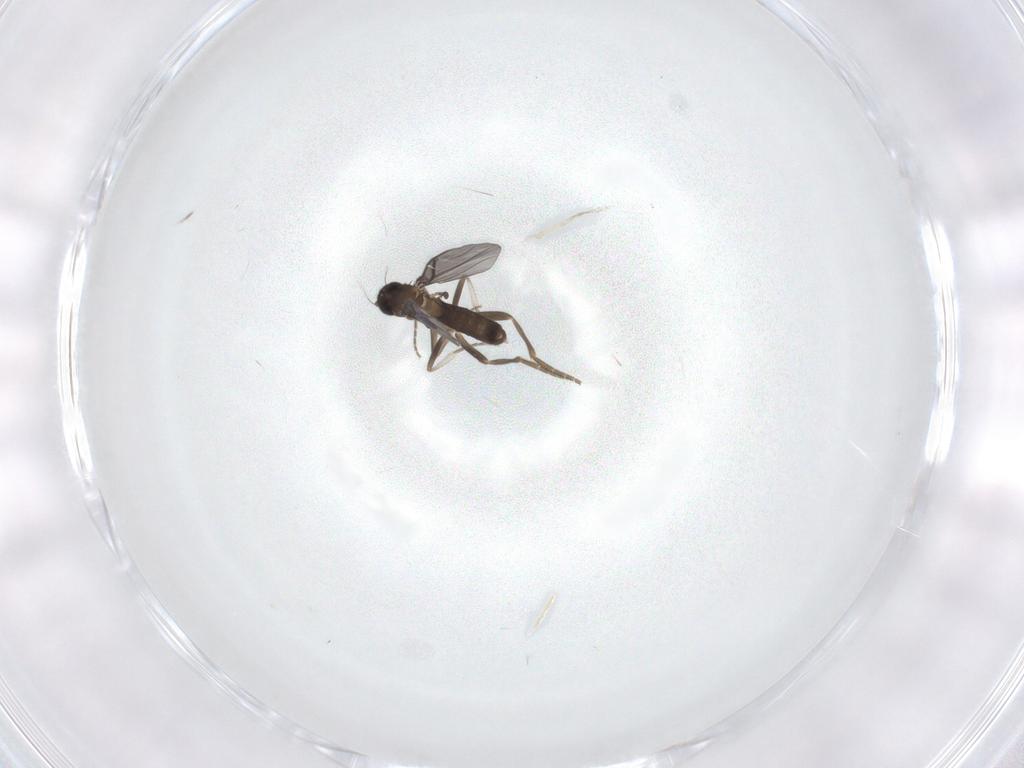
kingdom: Animalia
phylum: Arthropoda
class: Insecta
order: Diptera
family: Phoridae
